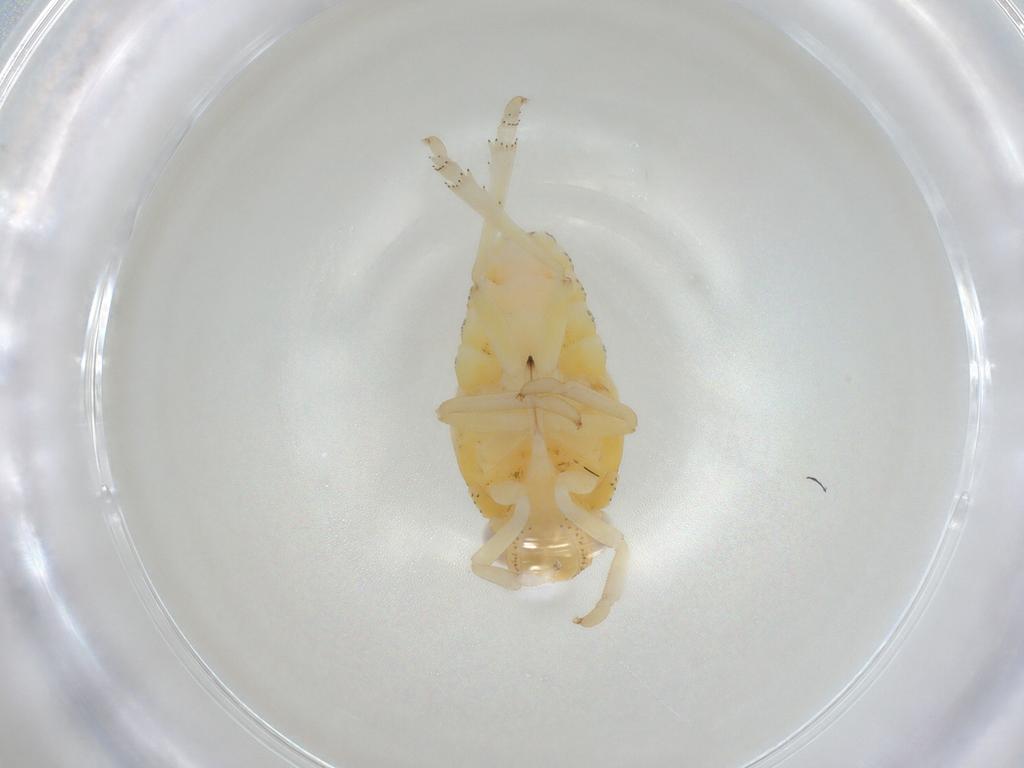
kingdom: Animalia
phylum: Arthropoda
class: Insecta
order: Hemiptera
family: Tropiduchidae
